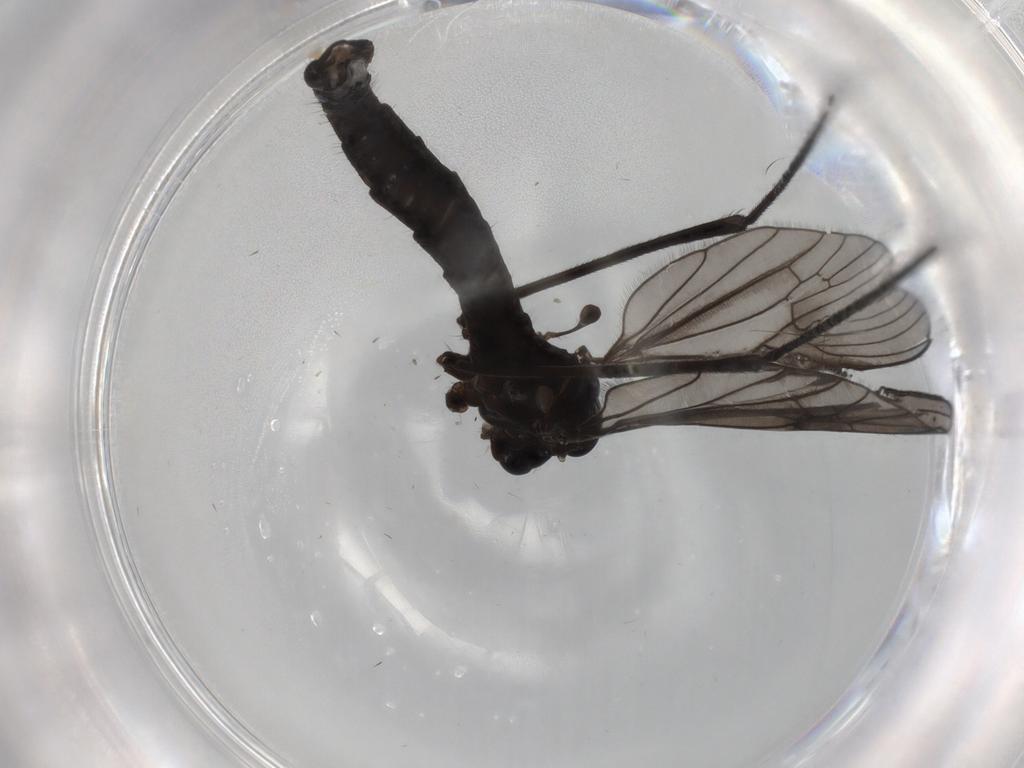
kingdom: Animalia
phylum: Arthropoda
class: Insecta
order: Diptera
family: Limoniidae
